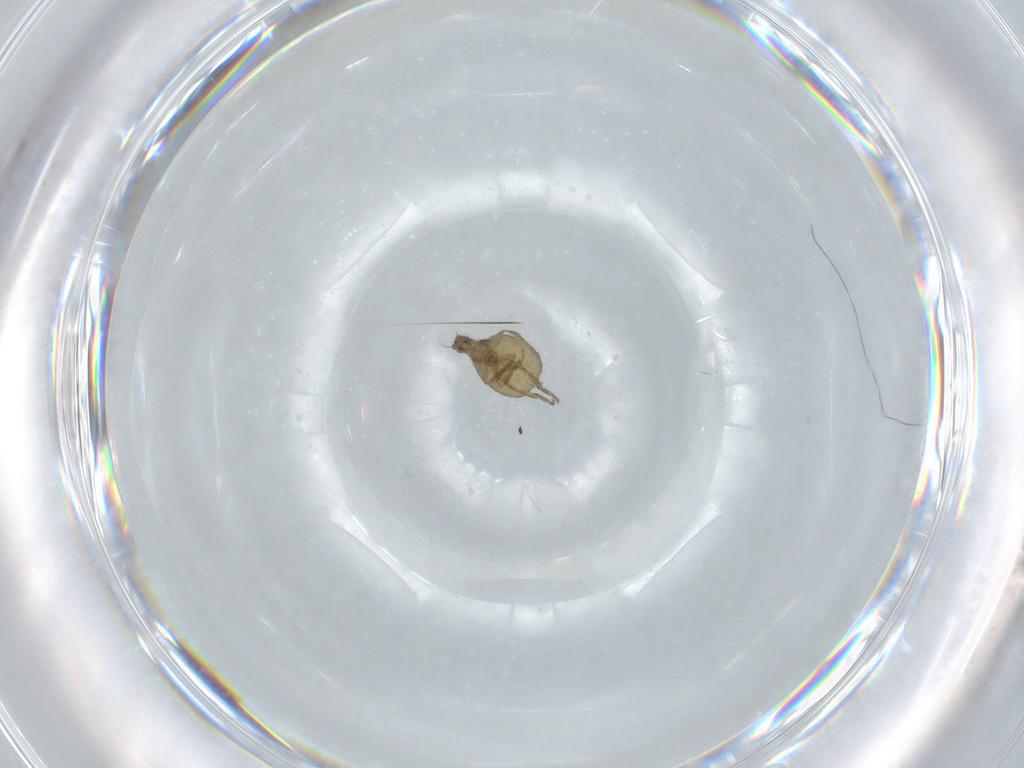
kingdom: Animalia
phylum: Arthropoda
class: Insecta
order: Diptera
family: Phoridae
